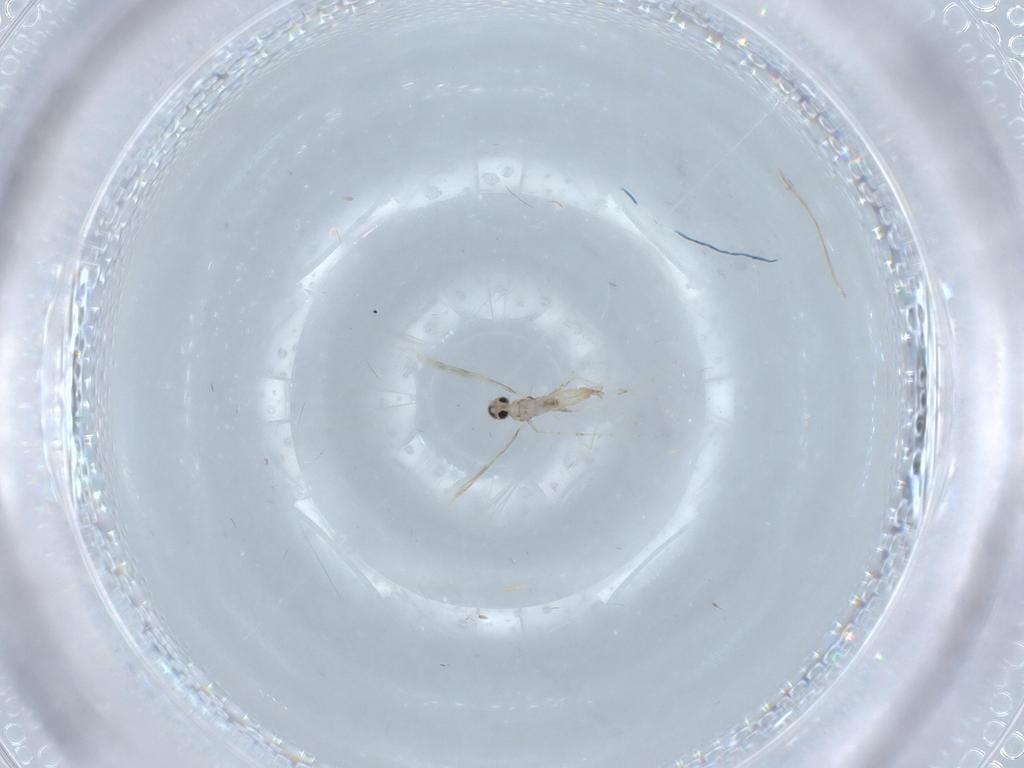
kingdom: Animalia
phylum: Arthropoda
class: Insecta
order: Diptera
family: Cecidomyiidae
